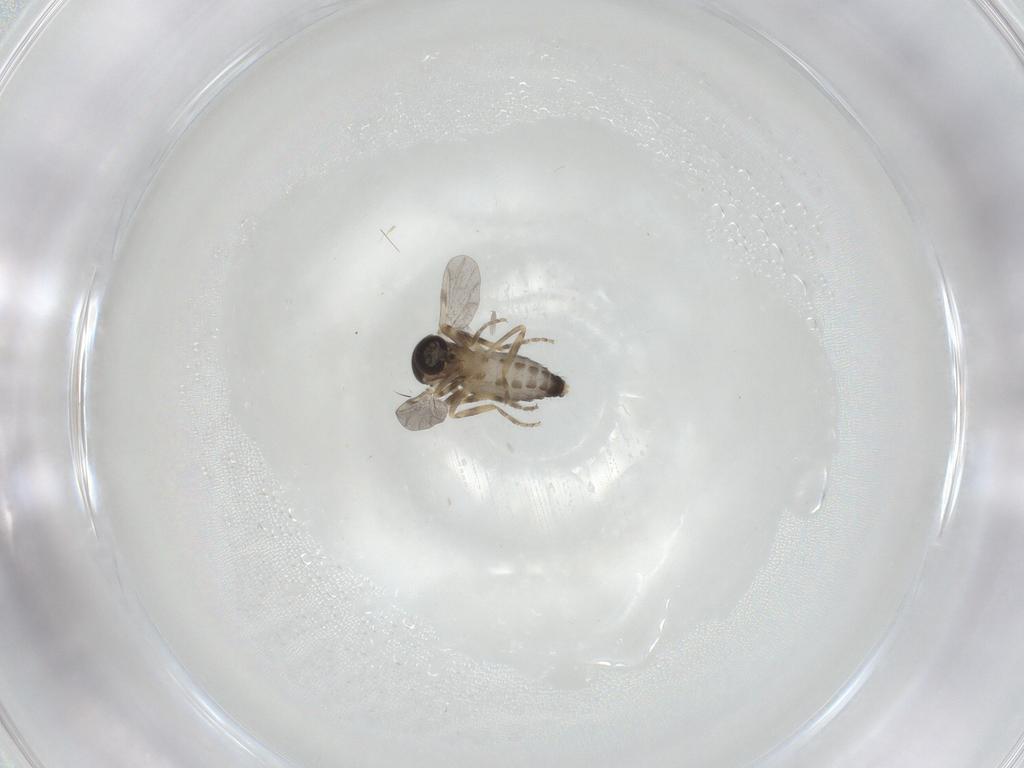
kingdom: Animalia
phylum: Arthropoda
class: Insecta
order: Diptera
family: Ceratopogonidae
